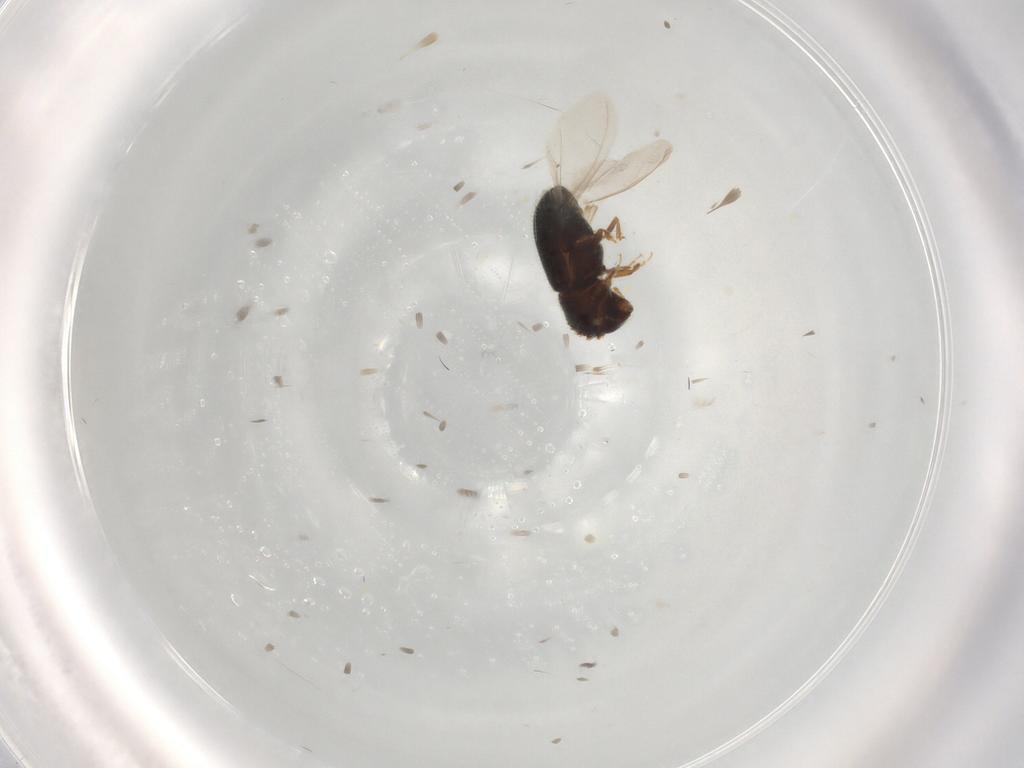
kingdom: Animalia
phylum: Arthropoda
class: Insecta
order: Coleoptera
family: Curculionidae
